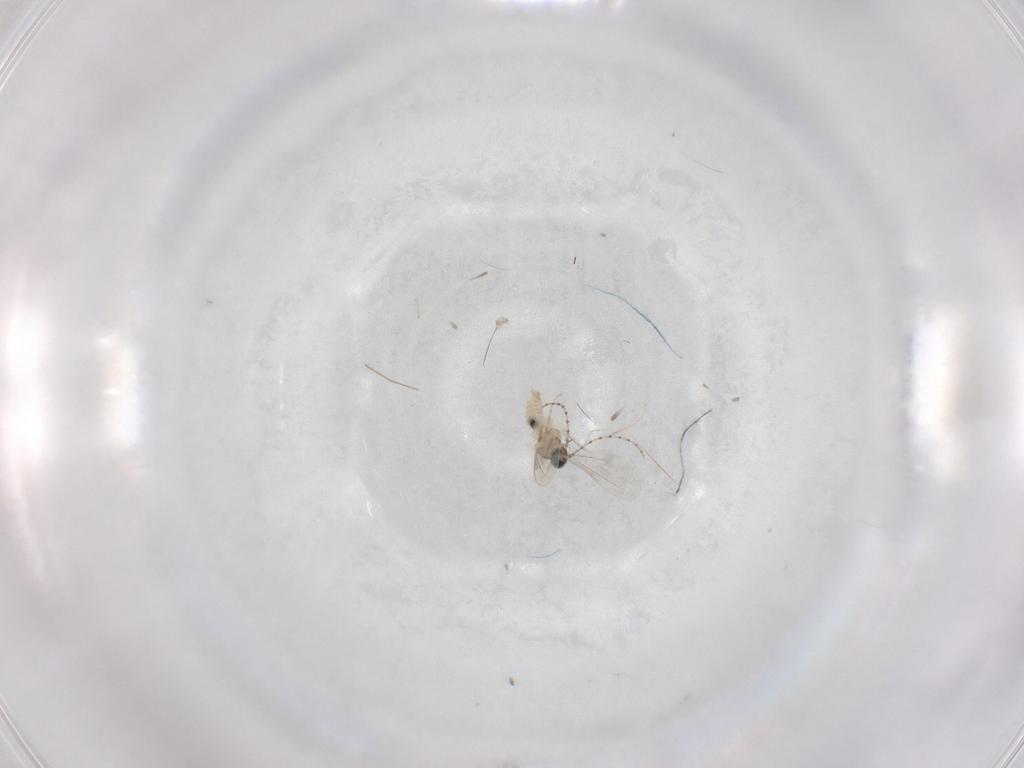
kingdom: Animalia
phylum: Arthropoda
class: Insecta
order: Diptera
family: Cecidomyiidae
